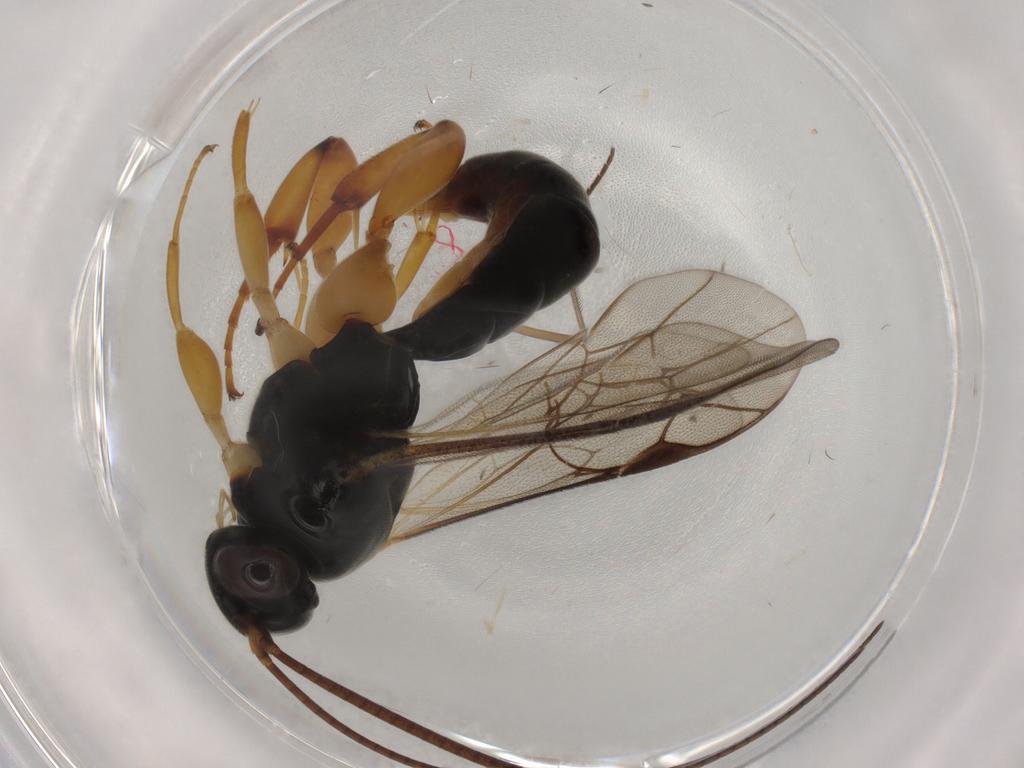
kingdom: Animalia
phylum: Arthropoda
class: Insecta
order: Hymenoptera
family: Ichneumonidae
